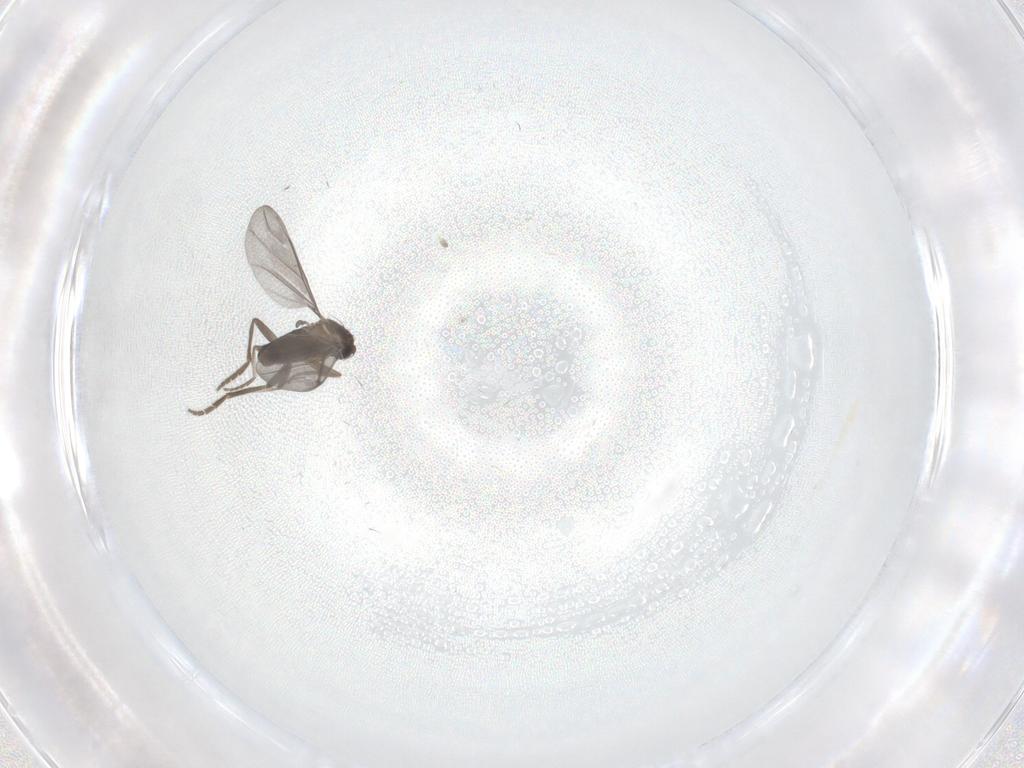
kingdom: Animalia
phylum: Arthropoda
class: Insecta
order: Diptera
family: Phoridae
